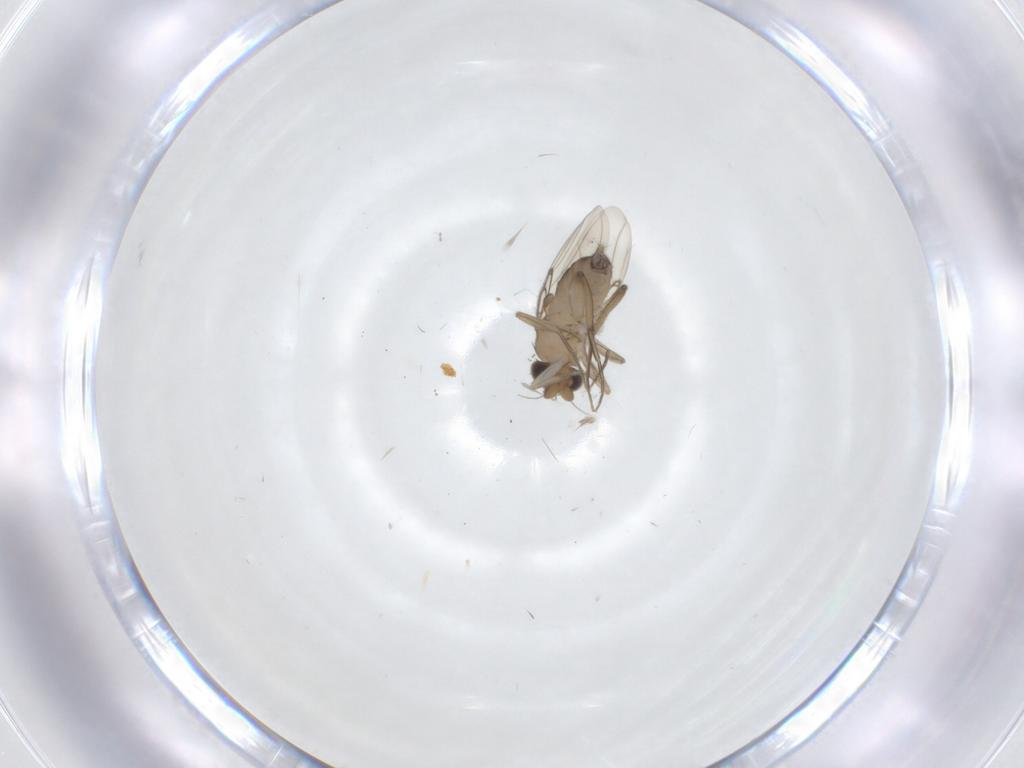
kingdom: Animalia
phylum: Arthropoda
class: Insecta
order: Diptera
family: Phoridae
